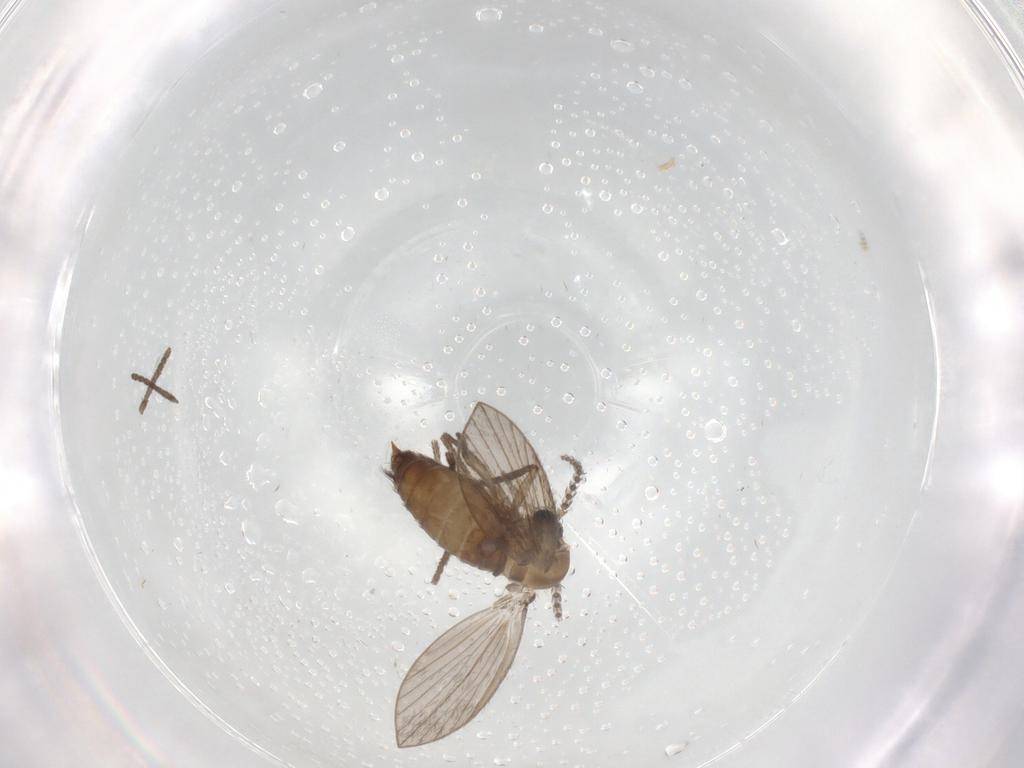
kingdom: Animalia
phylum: Arthropoda
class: Insecta
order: Diptera
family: Psychodidae
